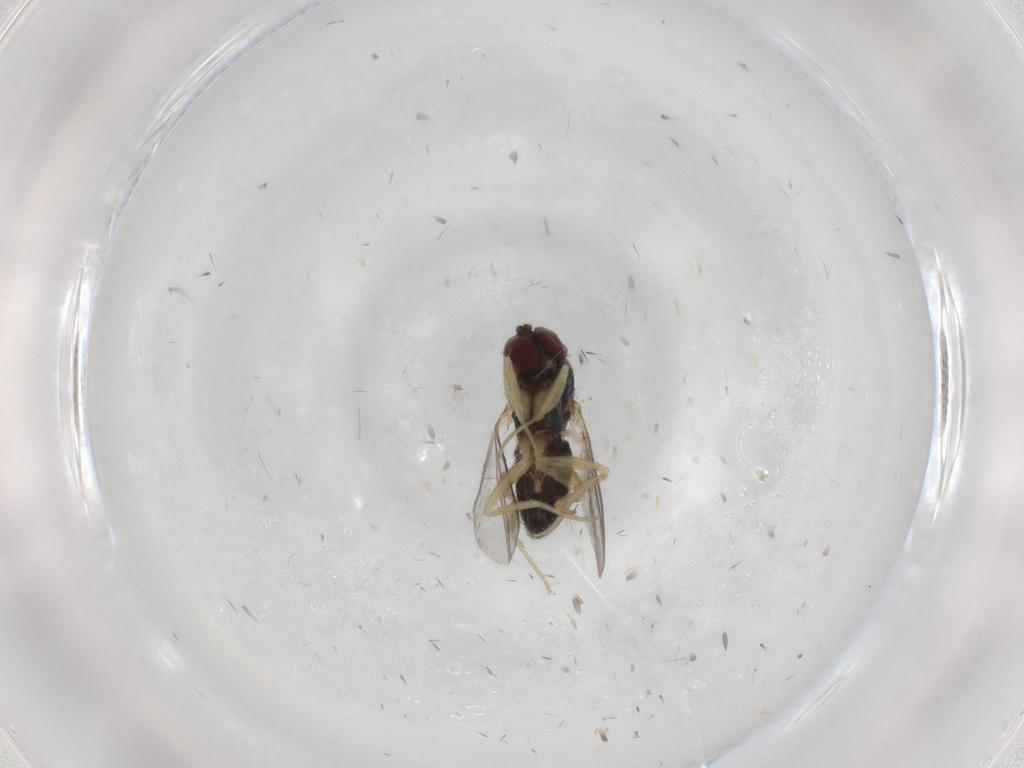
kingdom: Animalia
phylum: Arthropoda
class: Insecta
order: Diptera
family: Dolichopodidae
